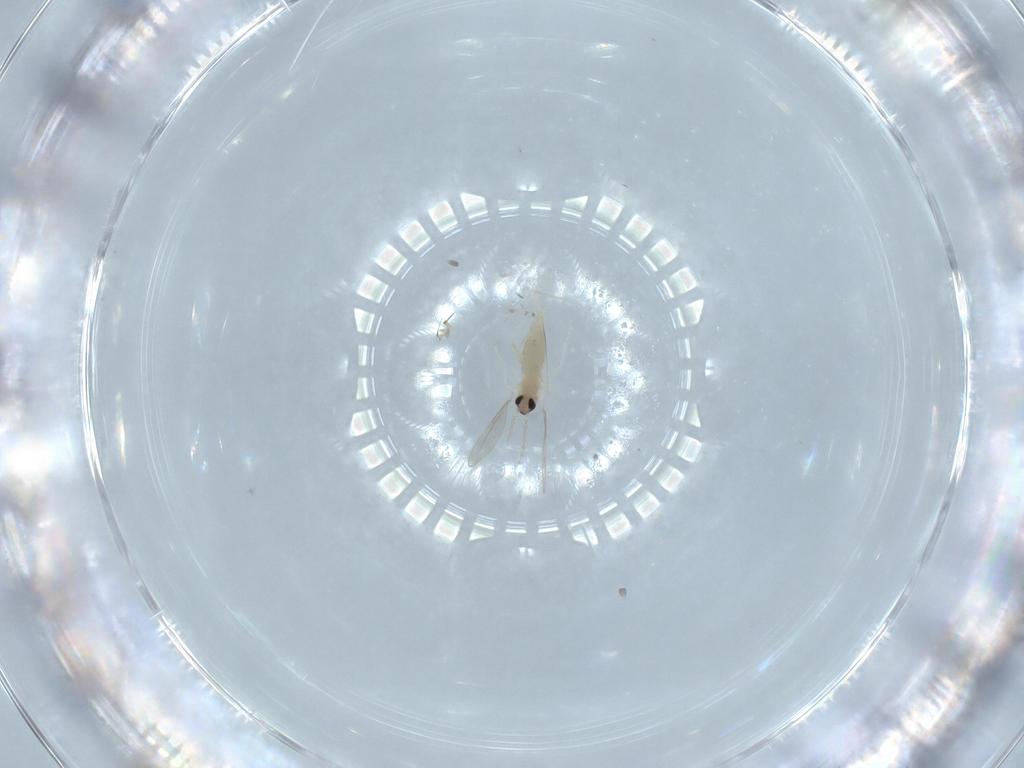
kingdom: Animalia
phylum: Arthropoda
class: Insecta
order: Diptera
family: Cecidomyiidae
